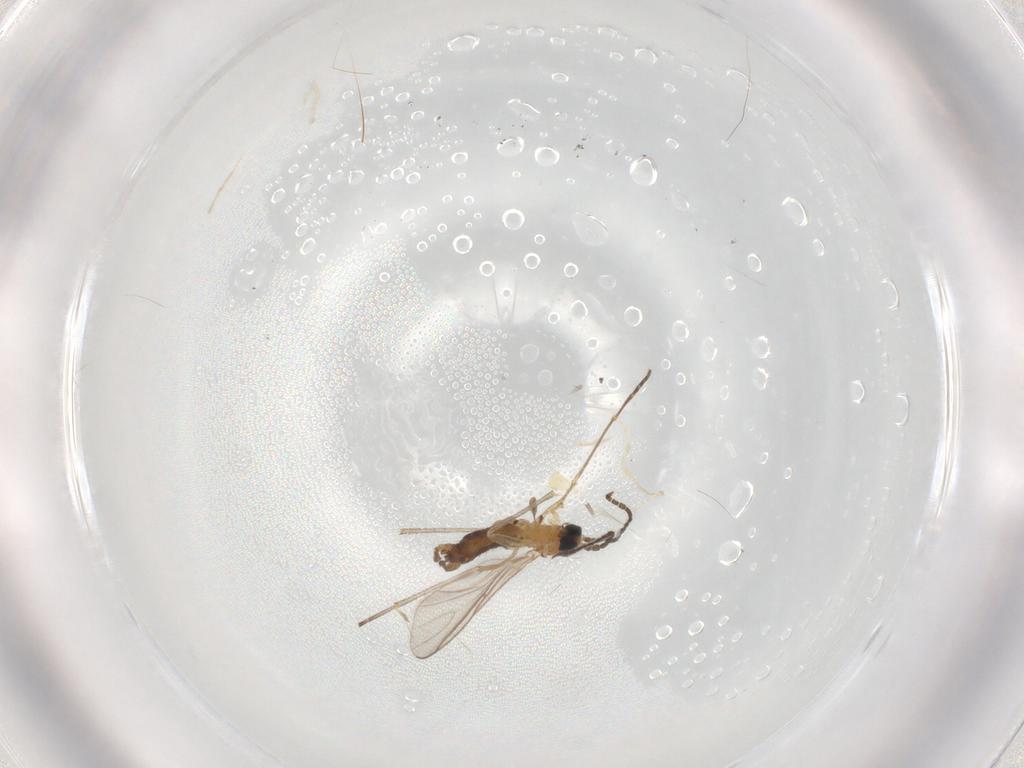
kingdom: Animalia
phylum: Arthropoda
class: Insecta
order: Diptera
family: Sciaridae
